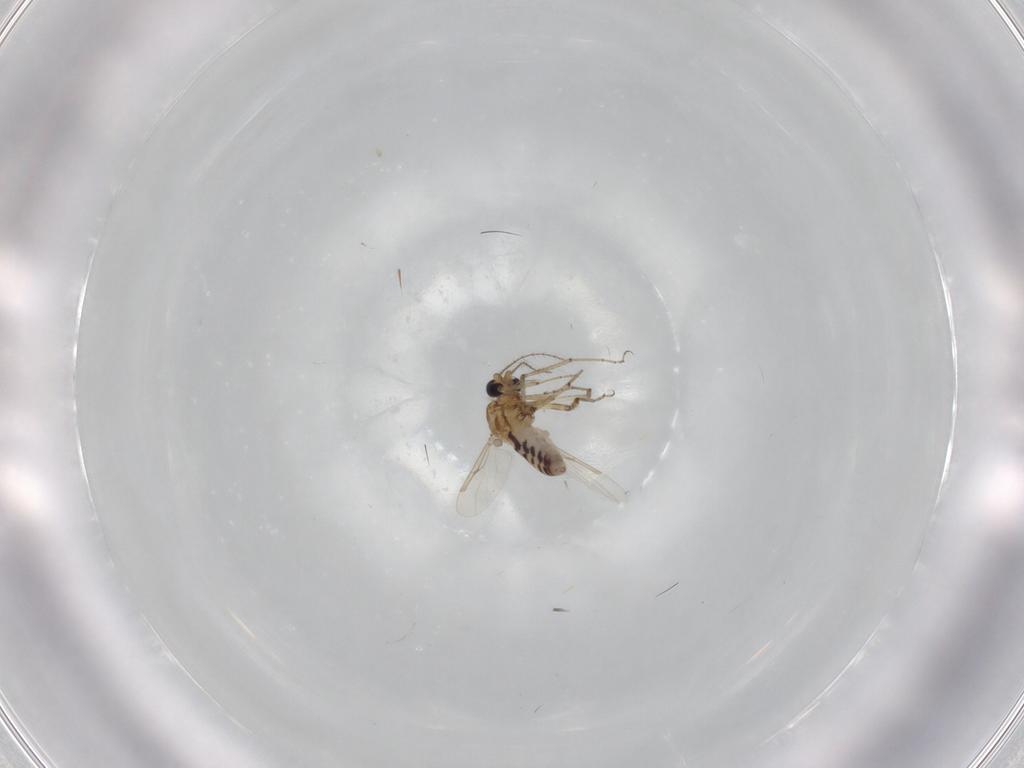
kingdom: Animalia
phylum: Arthropoda
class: Insecta
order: Diptera
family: Ceratopogonidae
